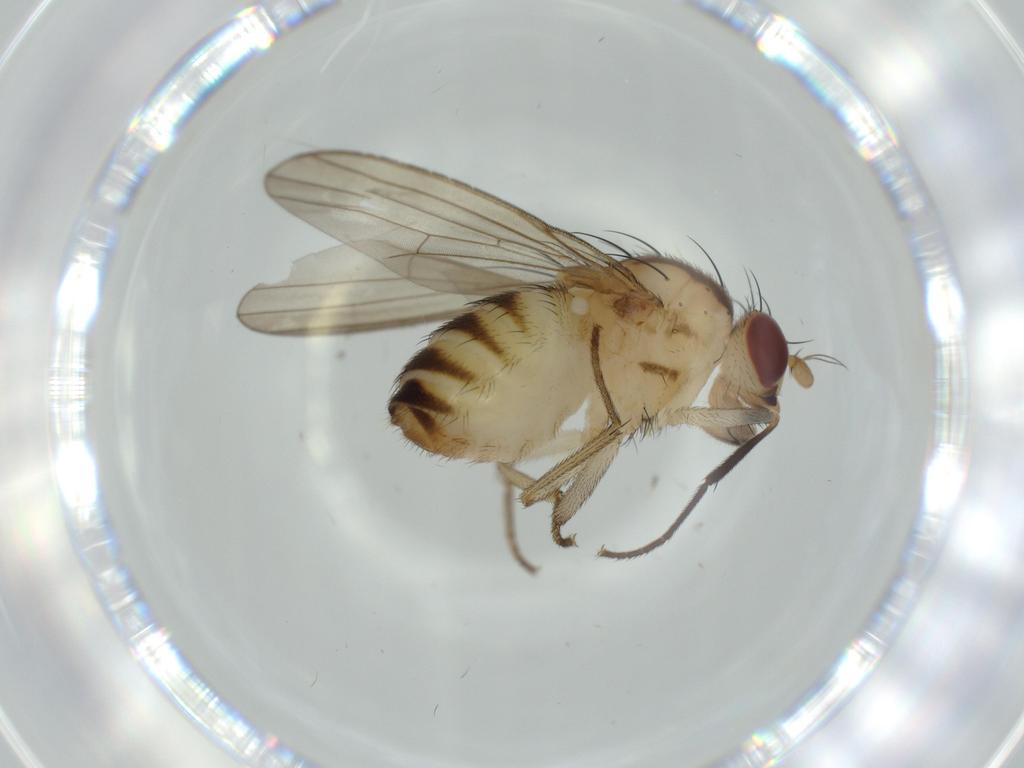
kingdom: Animalia
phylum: Arthropoda
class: Insecta
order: Diptera
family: Lauxaniidae
